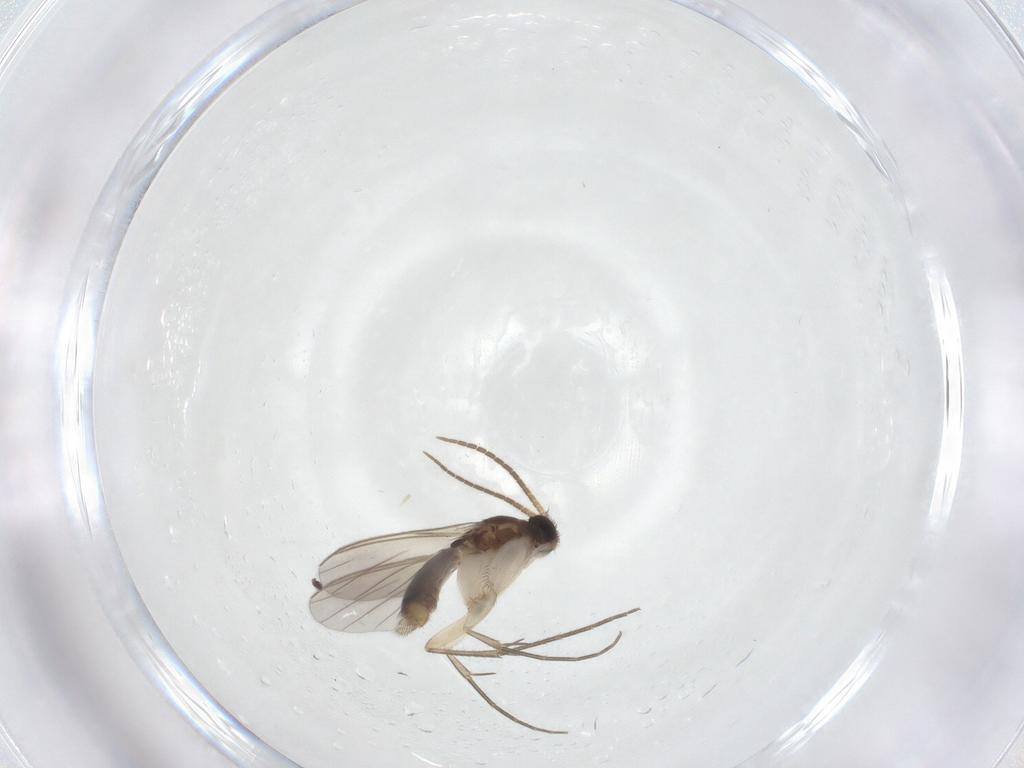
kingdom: Animalia
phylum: Arthropoda
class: Insecta
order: Diptera
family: Mycetophilidae
